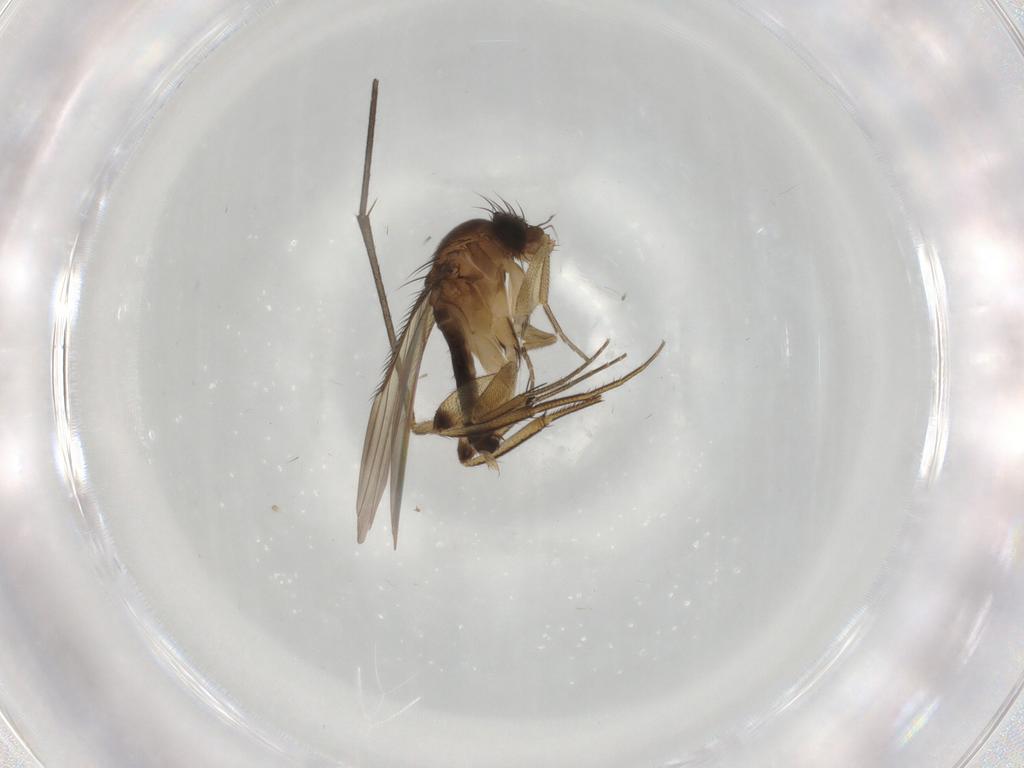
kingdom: Animalia
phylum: Arthropoda
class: Insecta
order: Diptera
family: Phoridae
